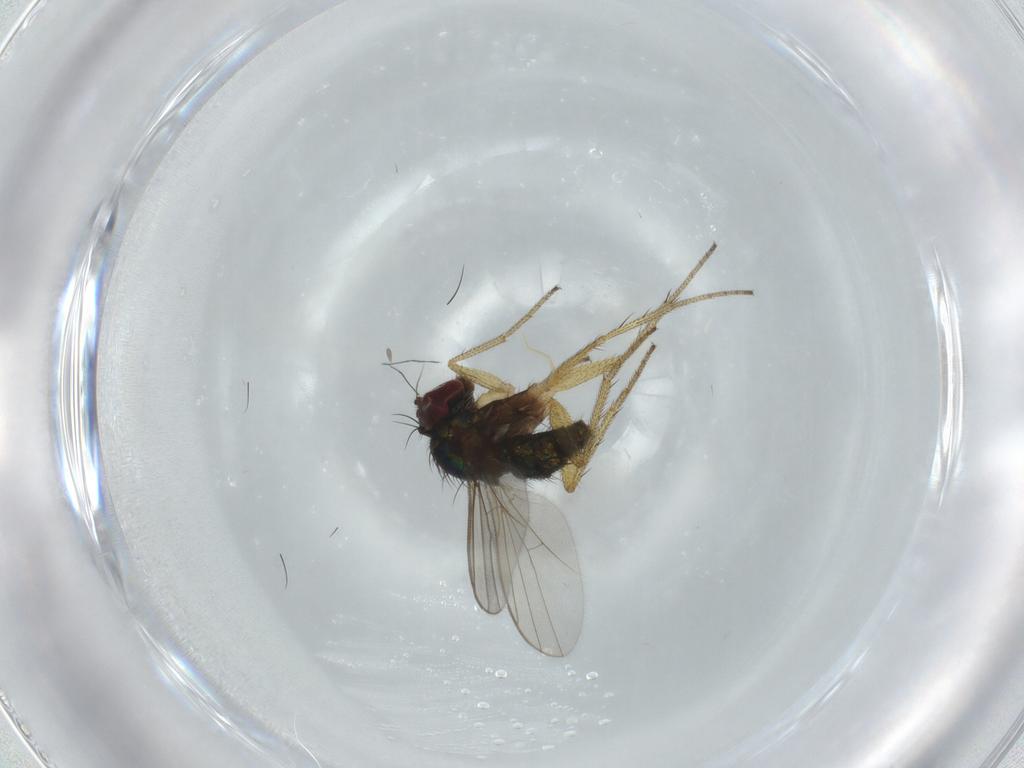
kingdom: Animalia
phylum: Arthropoda
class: Insecta
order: Diptera
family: Dolichopodidae
